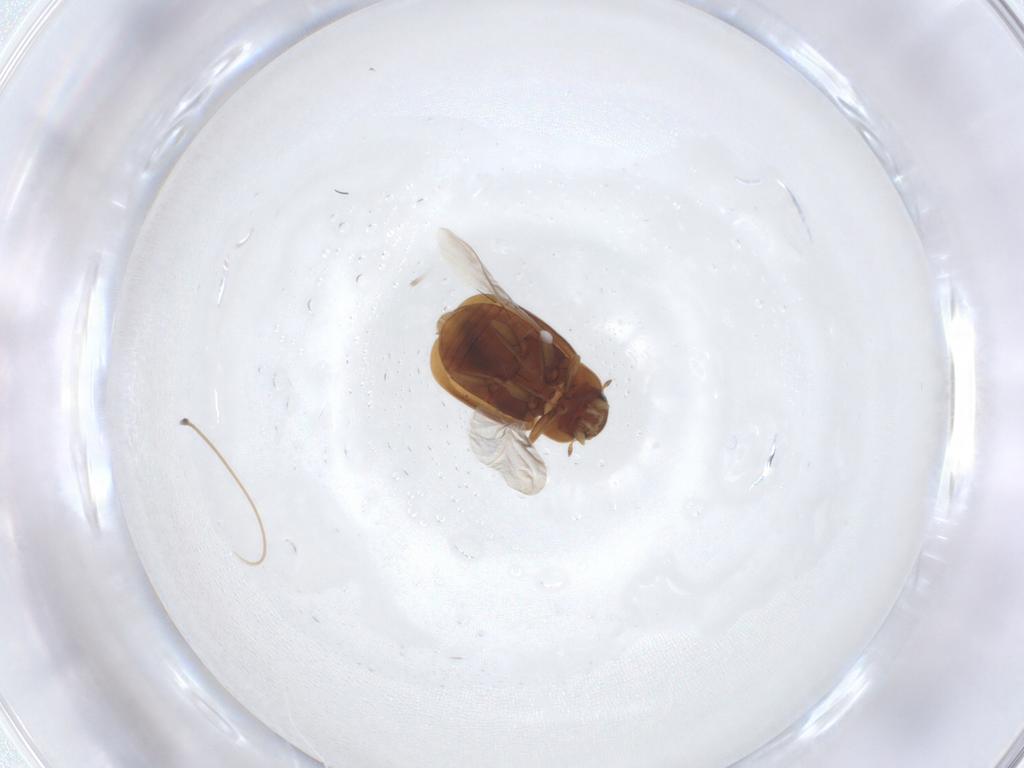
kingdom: Animalia
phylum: Arthropoda
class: Insecta
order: Coleoptera
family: Coccinellidae
